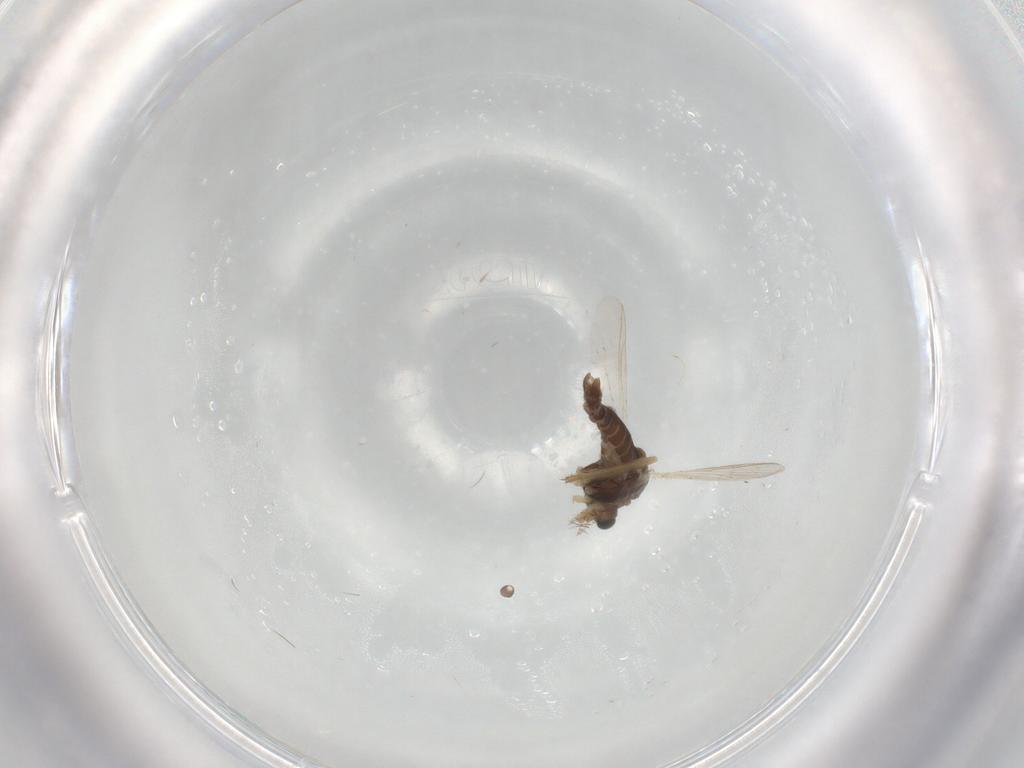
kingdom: Animalia
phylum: Arthropoda
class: Insecta
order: Diptera
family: Chironomidae
